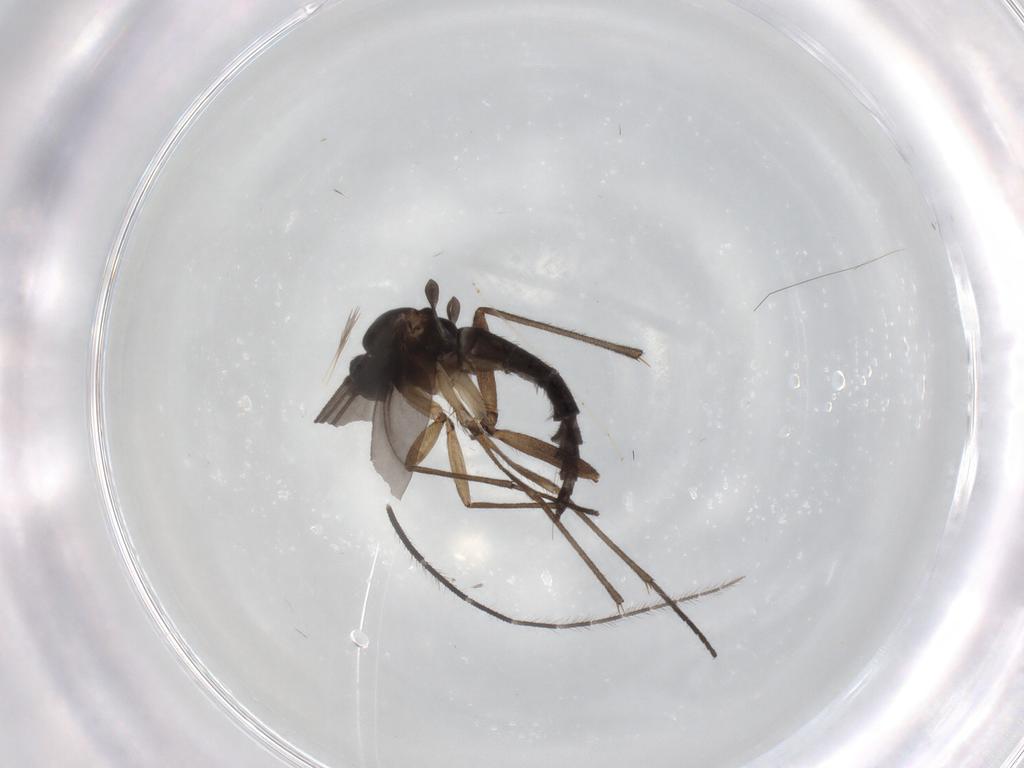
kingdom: Animalia
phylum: Arthropoda
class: Insecta
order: Diptera
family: Sciaridae
